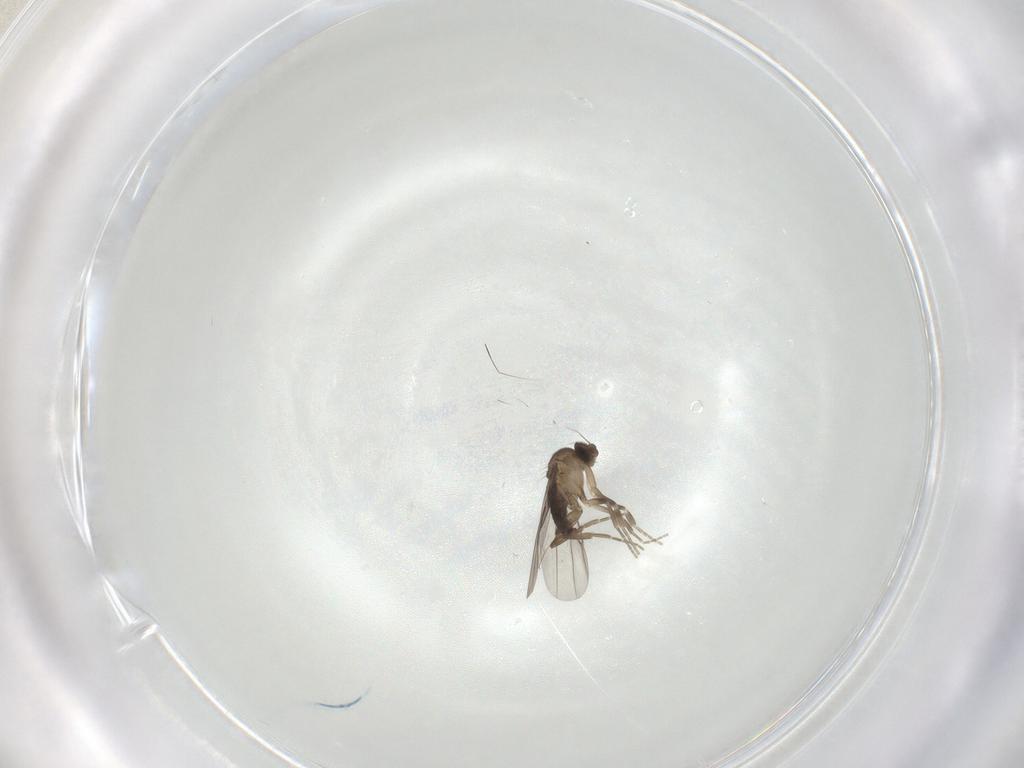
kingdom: Animalia
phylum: Arthropoda
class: Insecta
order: Diptera
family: Phoridae
